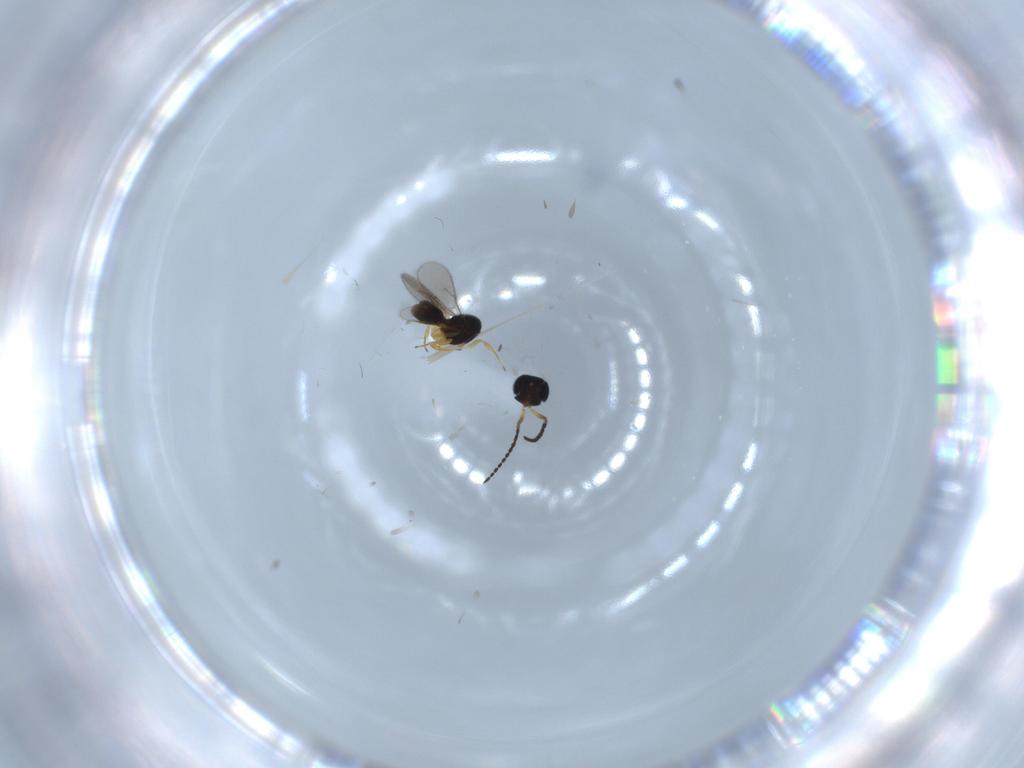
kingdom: Animalia
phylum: Arthropoda
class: Insecta
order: Hymenoptera
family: Scelionidae
